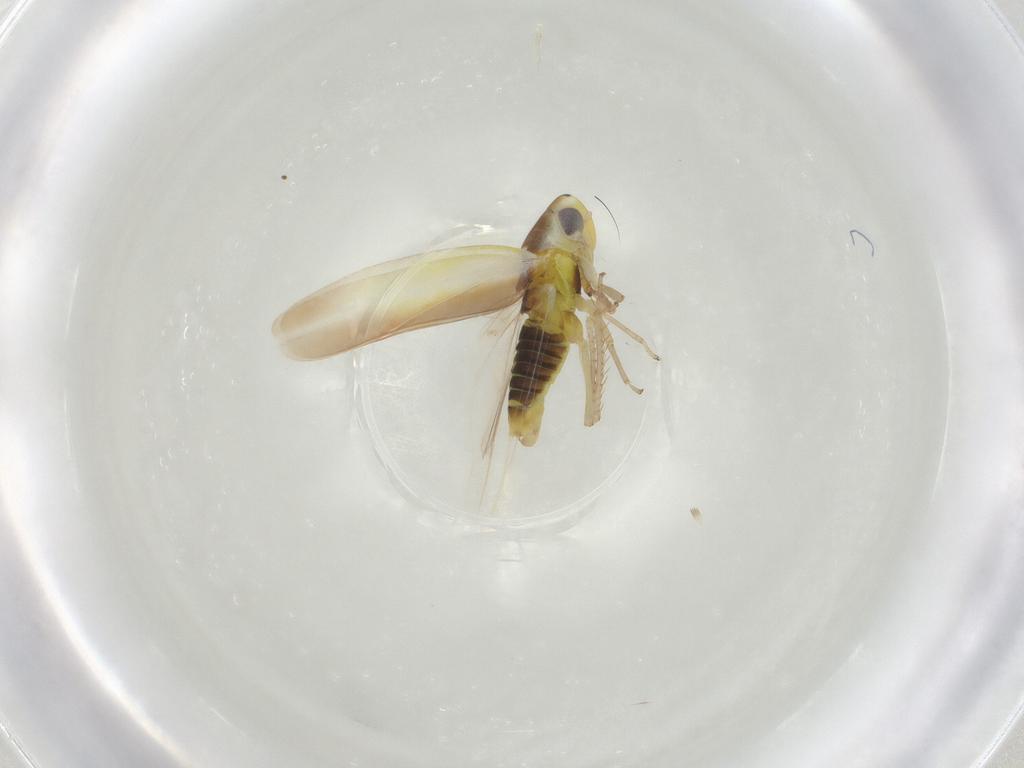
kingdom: Animalia
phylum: Arthropoda
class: Insecta
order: Hemiptera
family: Cicadellidae
